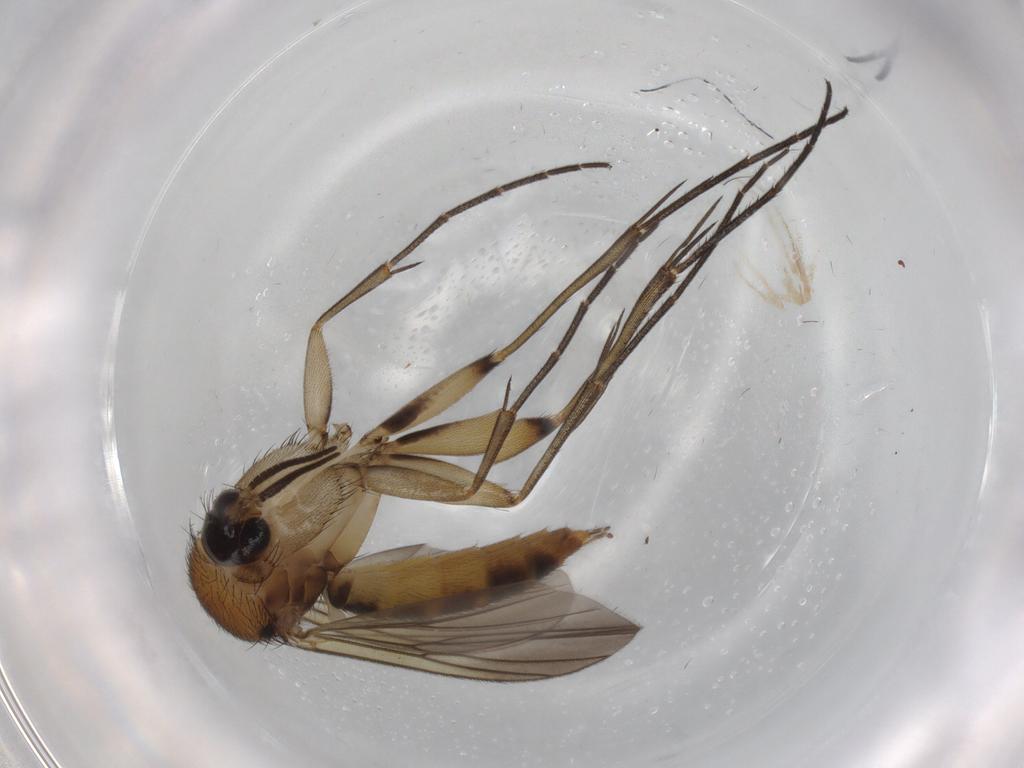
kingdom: Animalia
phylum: Arthropoda
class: Insecta
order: Diptera
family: Mycetophilidae
